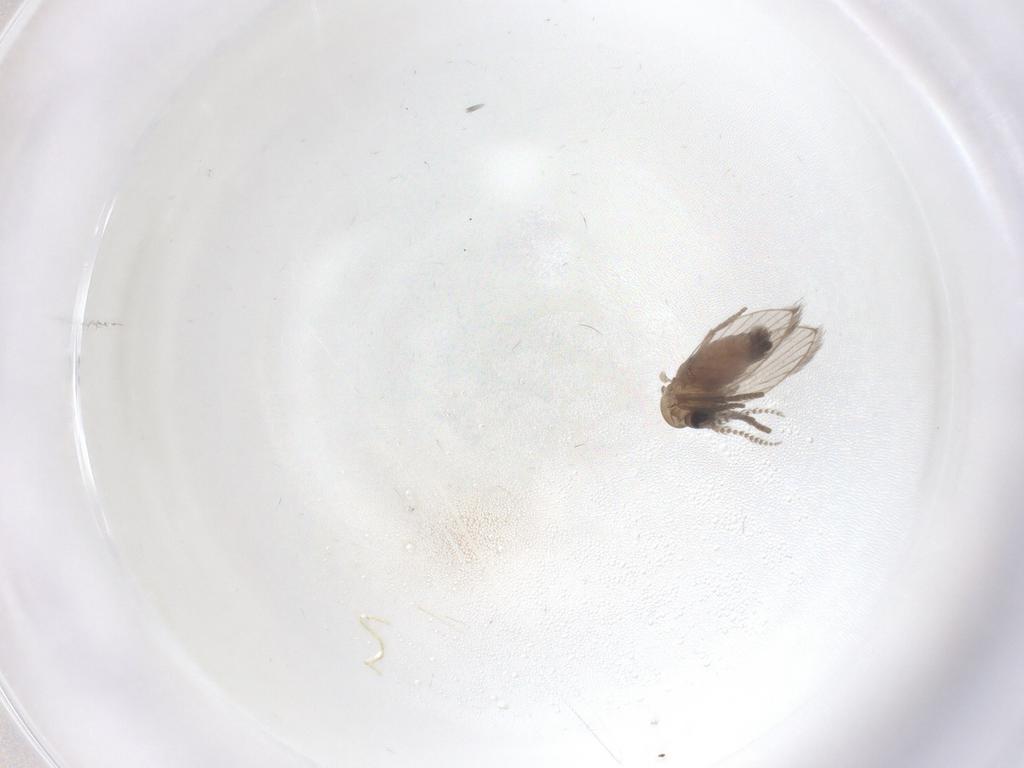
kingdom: Animalia
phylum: Arthropoda
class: Insecta
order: Diptera
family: Psychodidae
